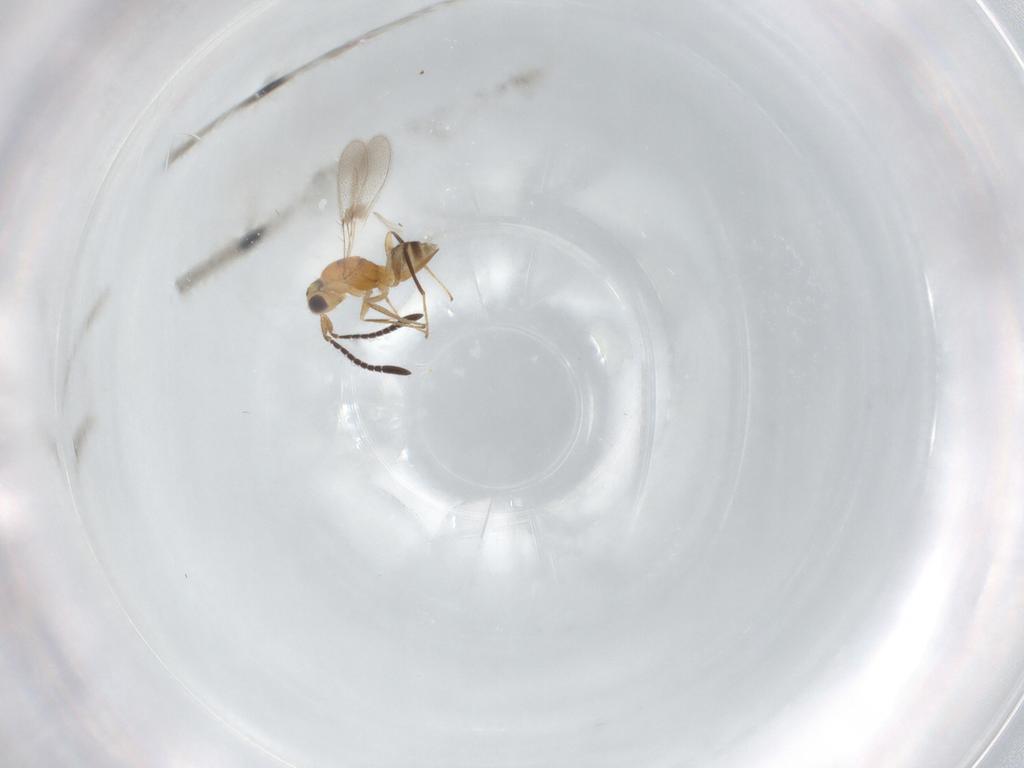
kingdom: Animalia
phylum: Arthropoda
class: Insecta
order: Hymenoptera
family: Mymaridae
